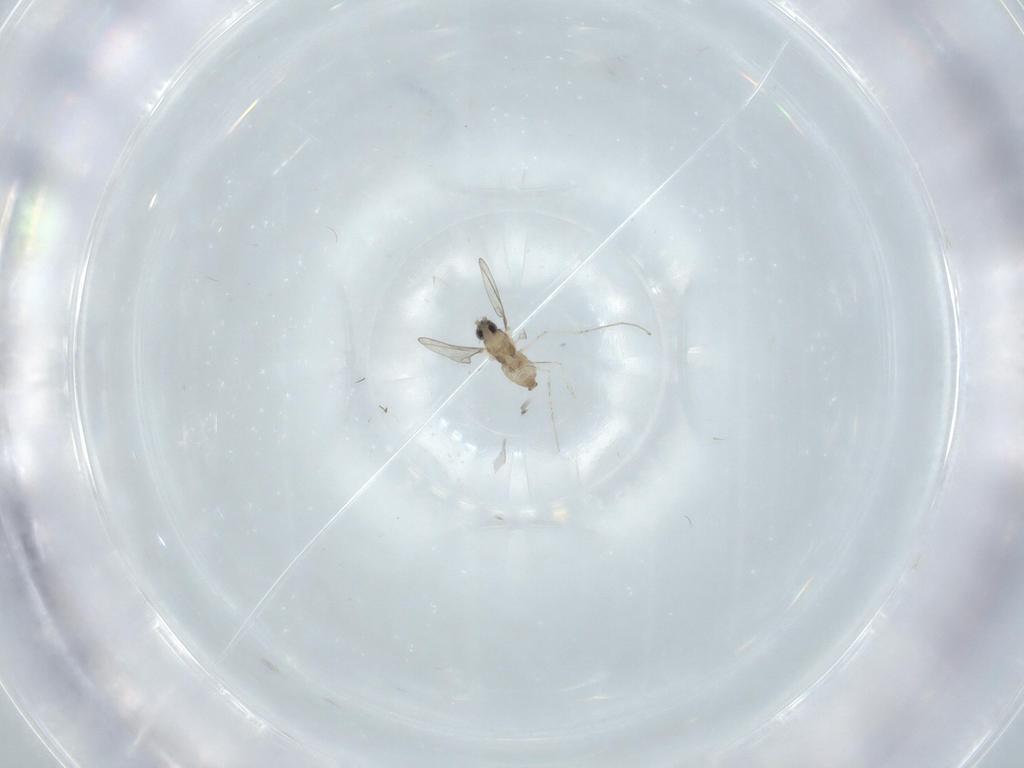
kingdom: Animalia
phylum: Arthropoda
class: Insecta
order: Diptera
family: Cecidomyiidae
